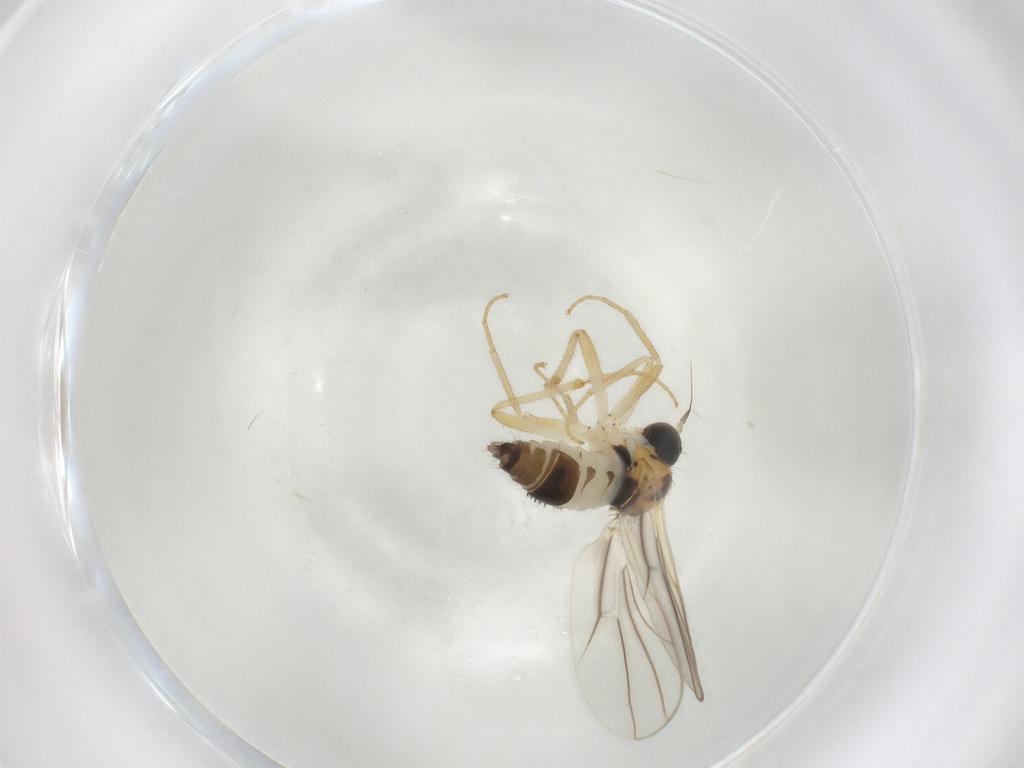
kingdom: Animalia
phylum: Arthropoda
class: Insecta
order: Diptera
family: Hybotidae
